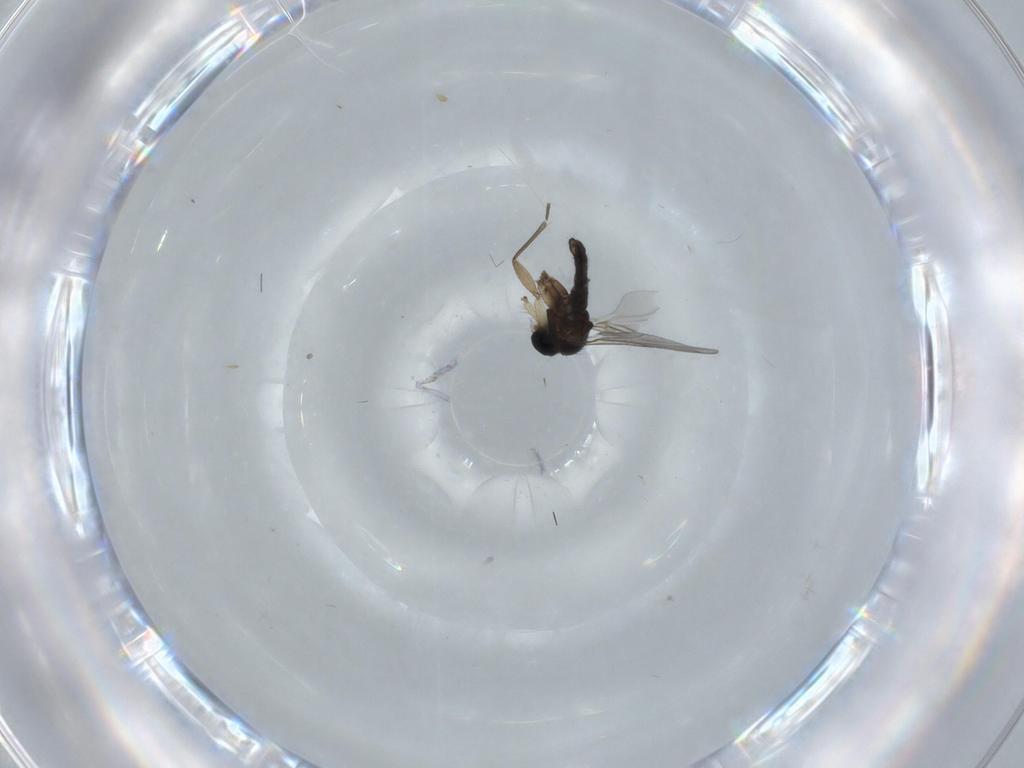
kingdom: Animalia
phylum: Arthropoda
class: Insecta
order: Diptera
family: Sciaridae
